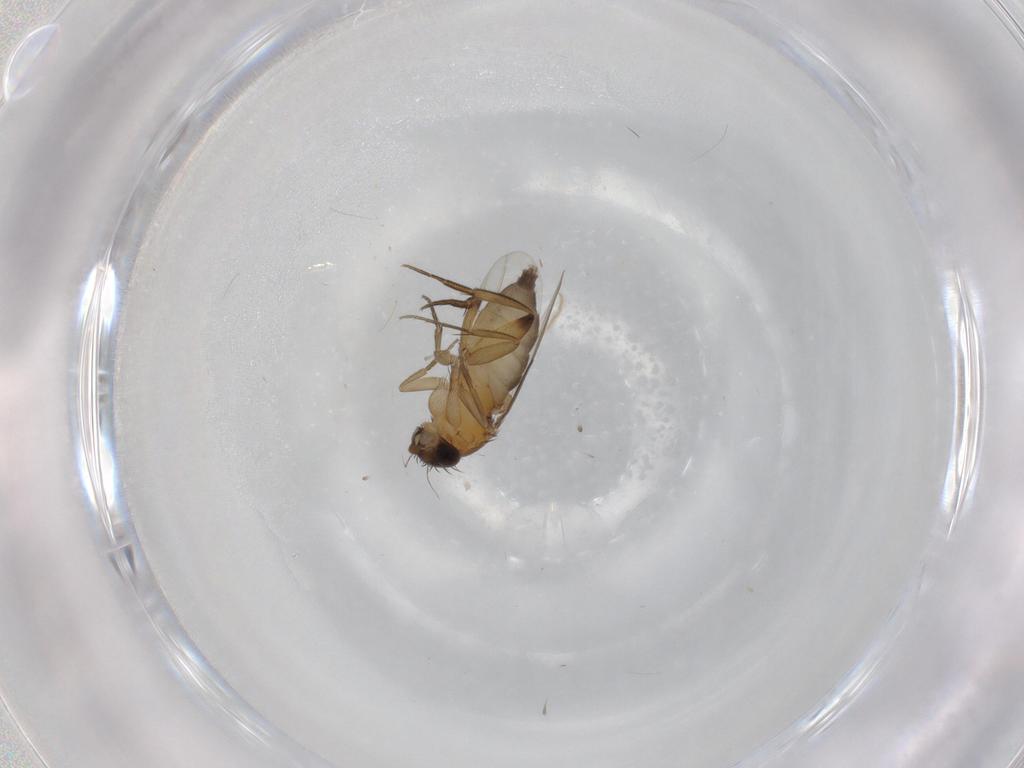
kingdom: Animalia
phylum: Arthropoda
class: Insecta
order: Diptera
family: Phoridae
